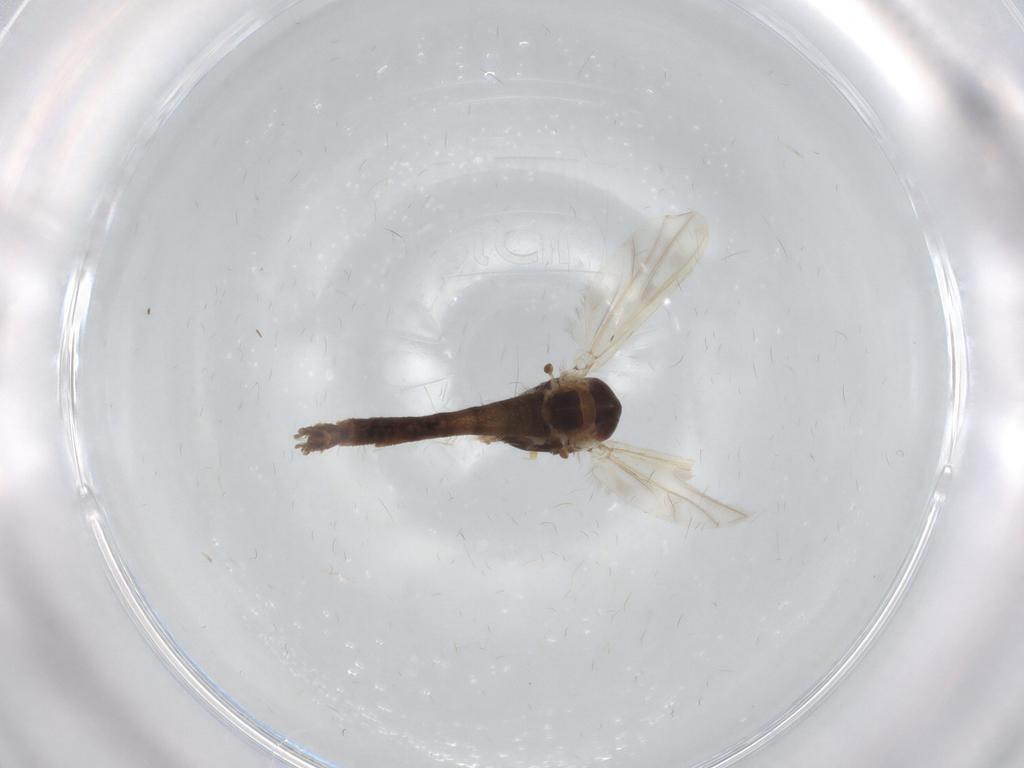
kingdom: Animalia
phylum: Arthropoda
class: Insecta
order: Diptera
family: Chironomidae
